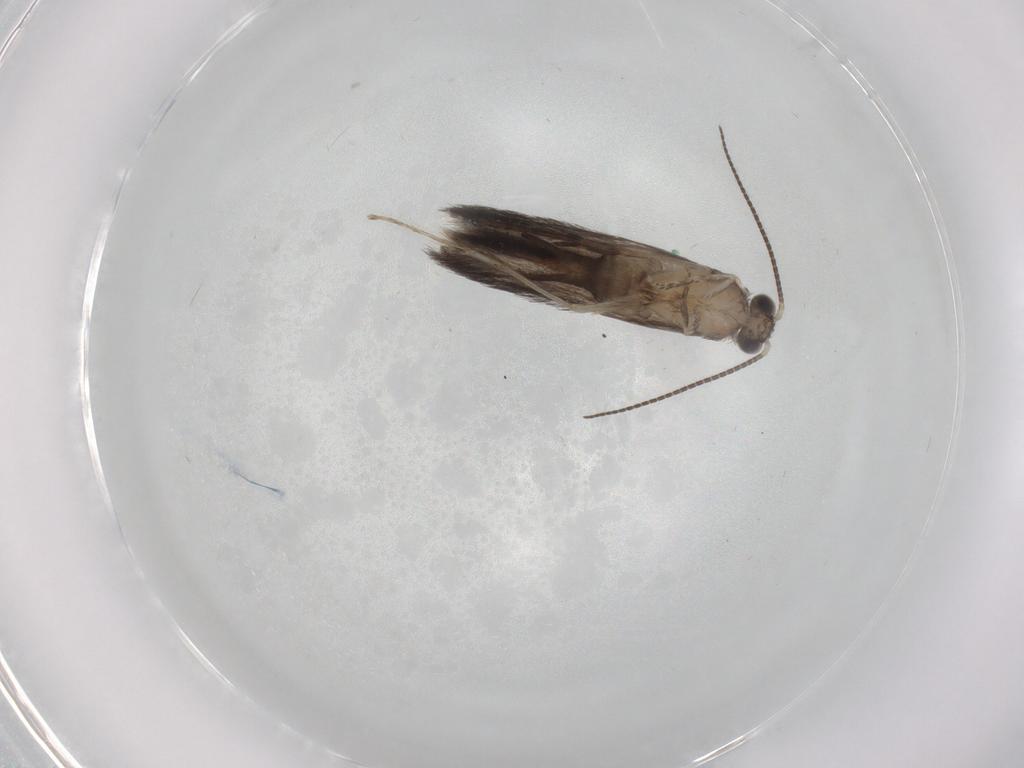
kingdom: Animalia
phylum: Arthropoda
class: Insecta
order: Trichoptera
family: Hydroptilidae
